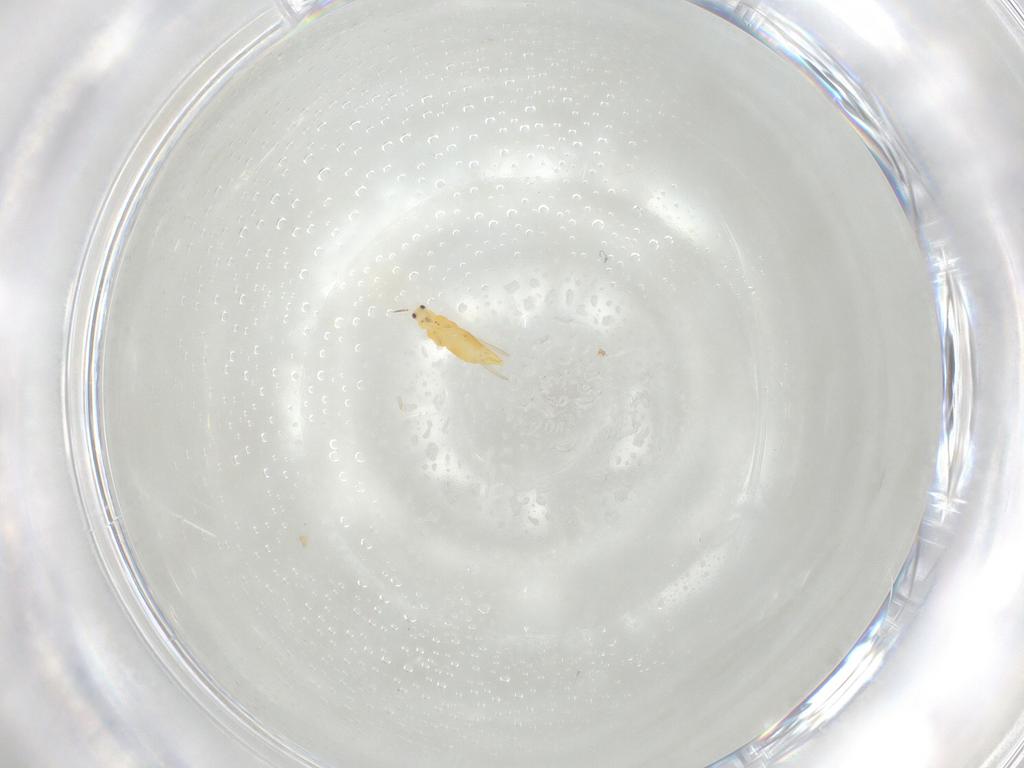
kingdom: Animalia
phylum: Arthropoda
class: Insecta
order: Thysanoptera
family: Thripidae
